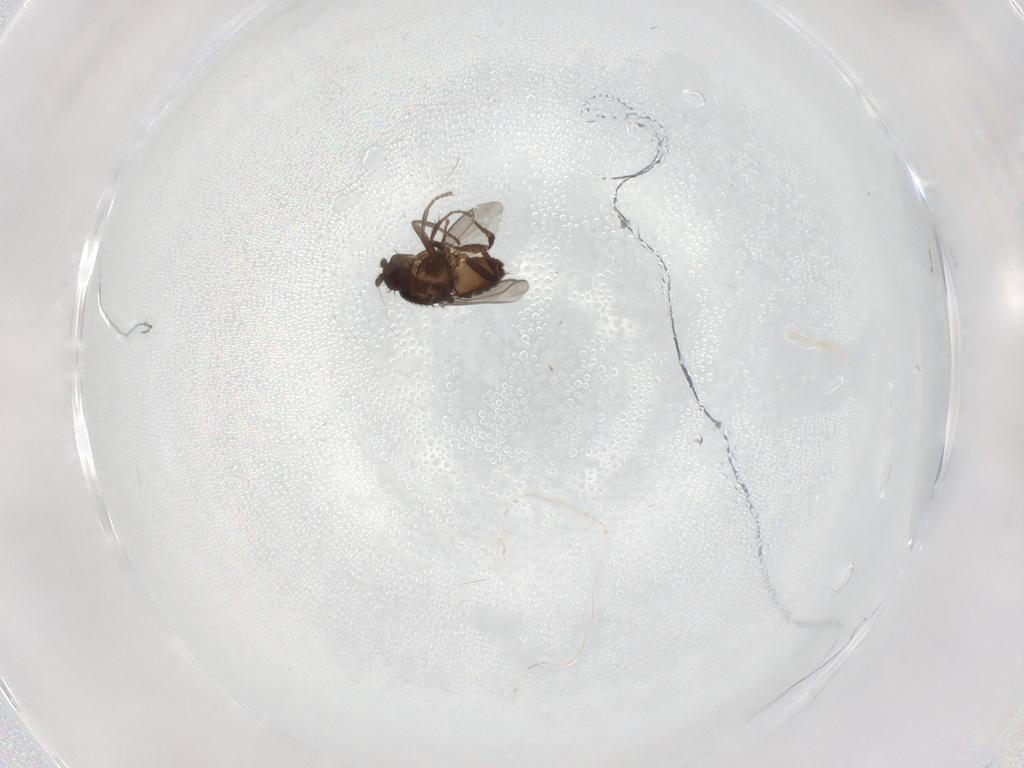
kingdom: Animalia
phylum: Arthropoda
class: Insecta
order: Diptera
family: Sphaeroceridae
